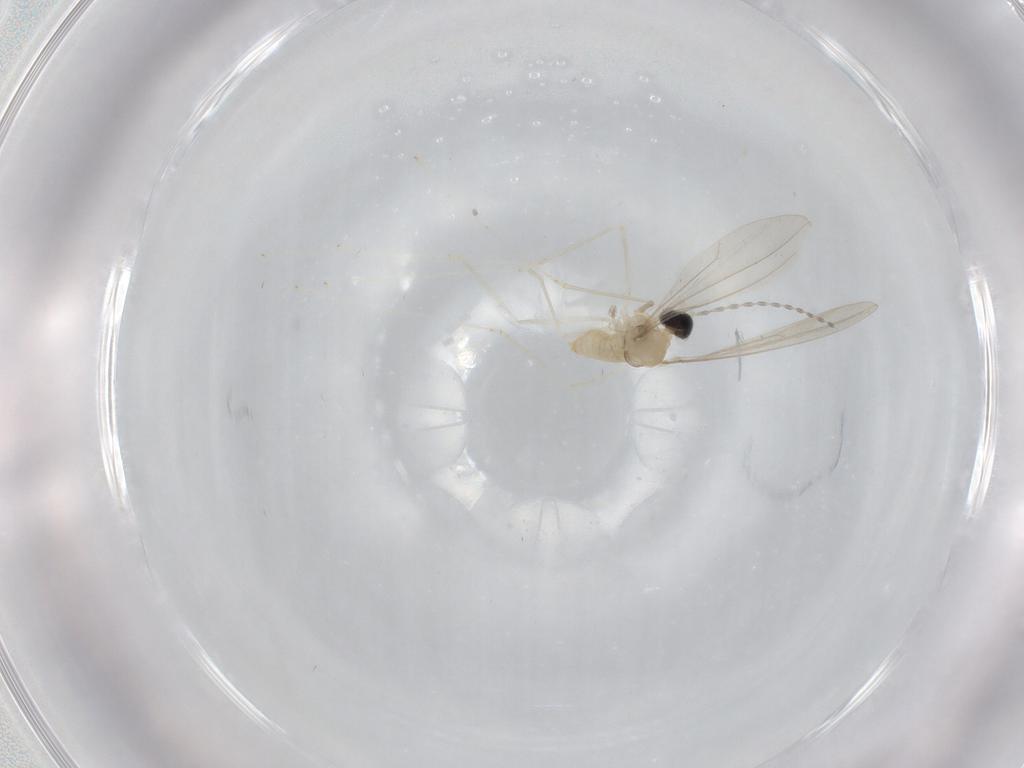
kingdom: Animalia
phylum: Arthropoda
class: Insecta
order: Diptera
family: Cecidomyiidae
